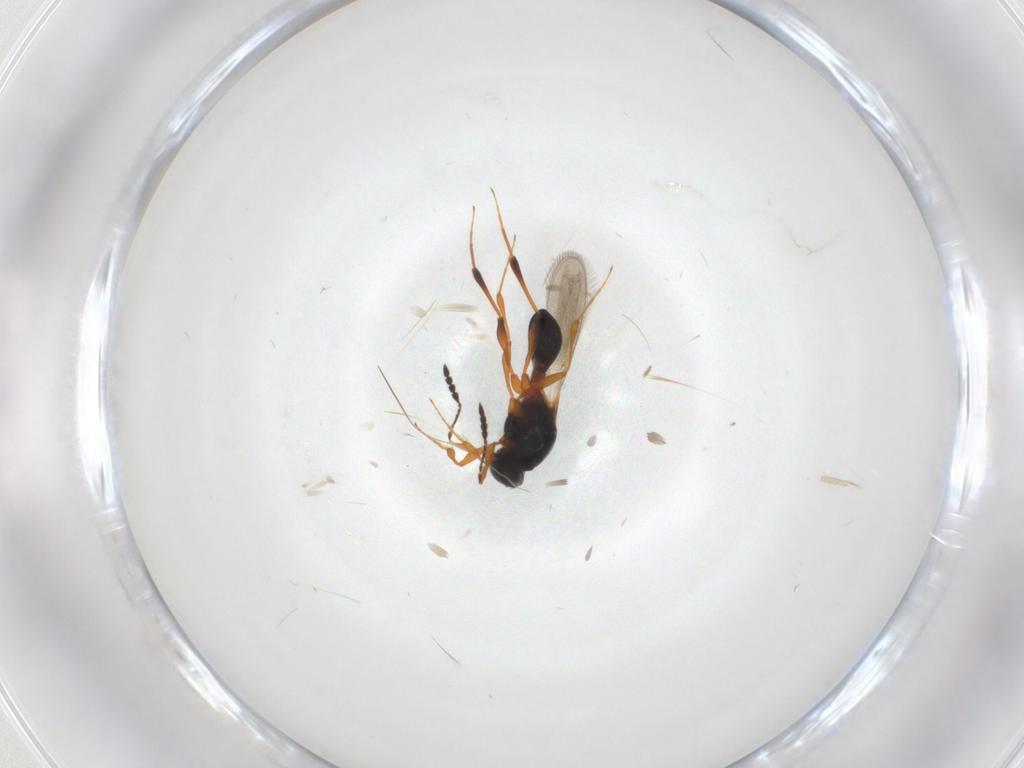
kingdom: Animalia
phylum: Arthropoda
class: Insecta
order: Hymenoptera
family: Platygastridae
